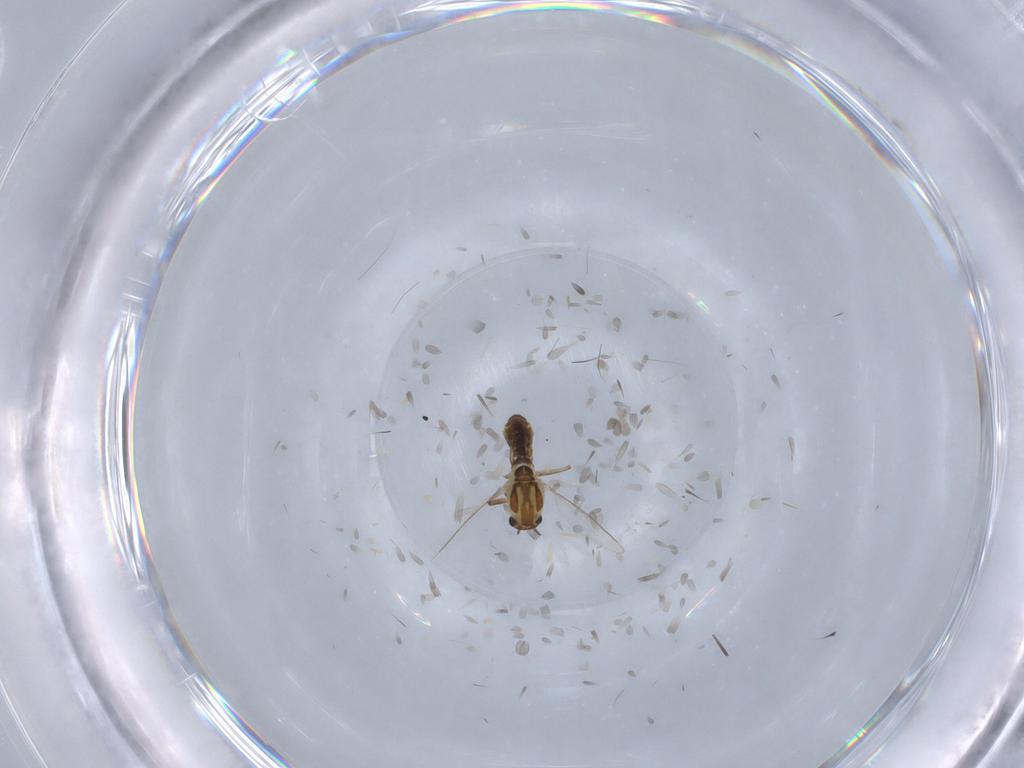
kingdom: Animalia
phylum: Arthropoda
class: Insecta
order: Diptera
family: Chironomidae
